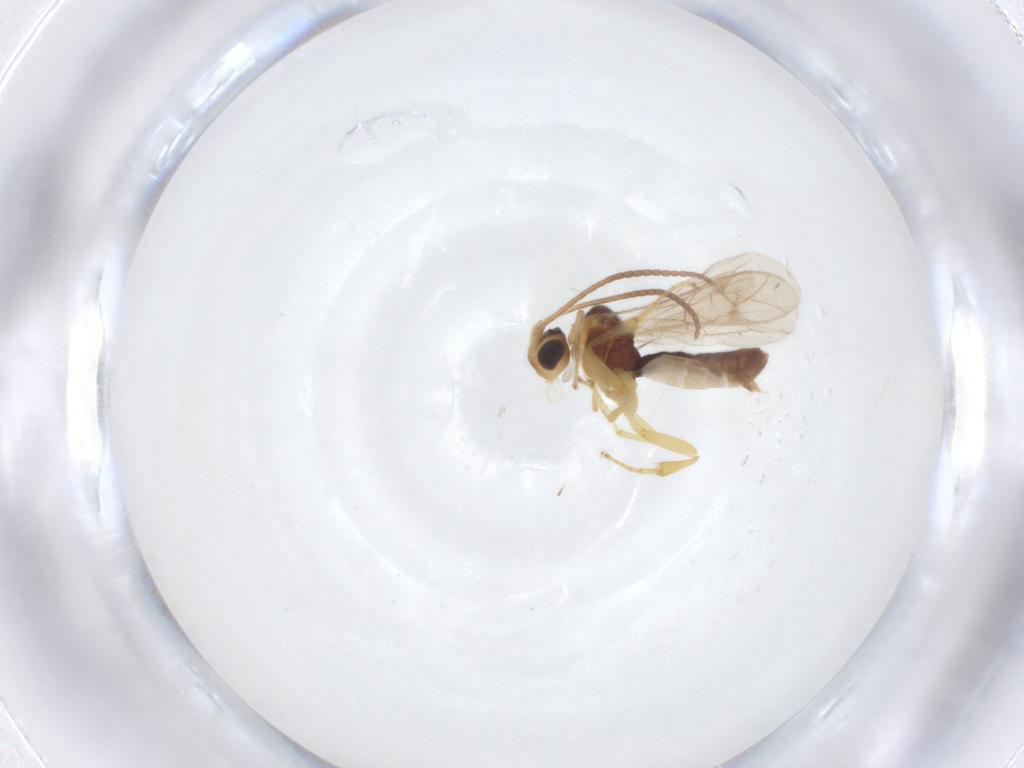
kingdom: Animalia
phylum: Arthropoda
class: Insecta
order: Hymenoptera
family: Ichneumonidae
